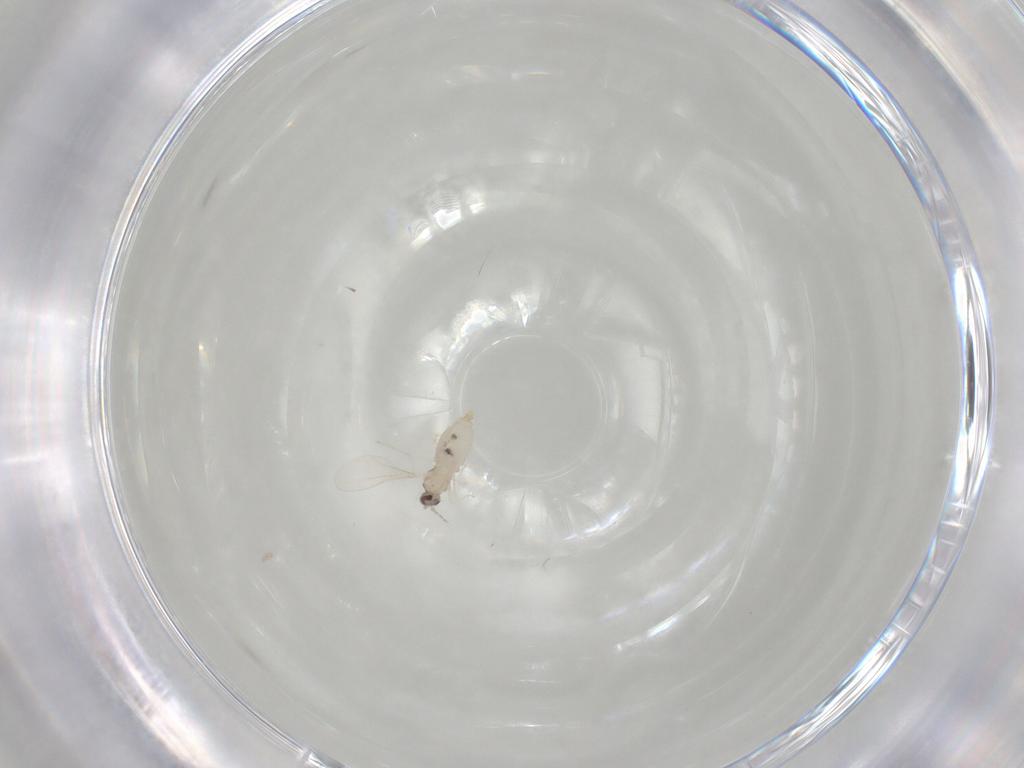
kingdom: Animalia
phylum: Arthropoda
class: Insecta
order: Diptera
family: Cecidomyiidae
